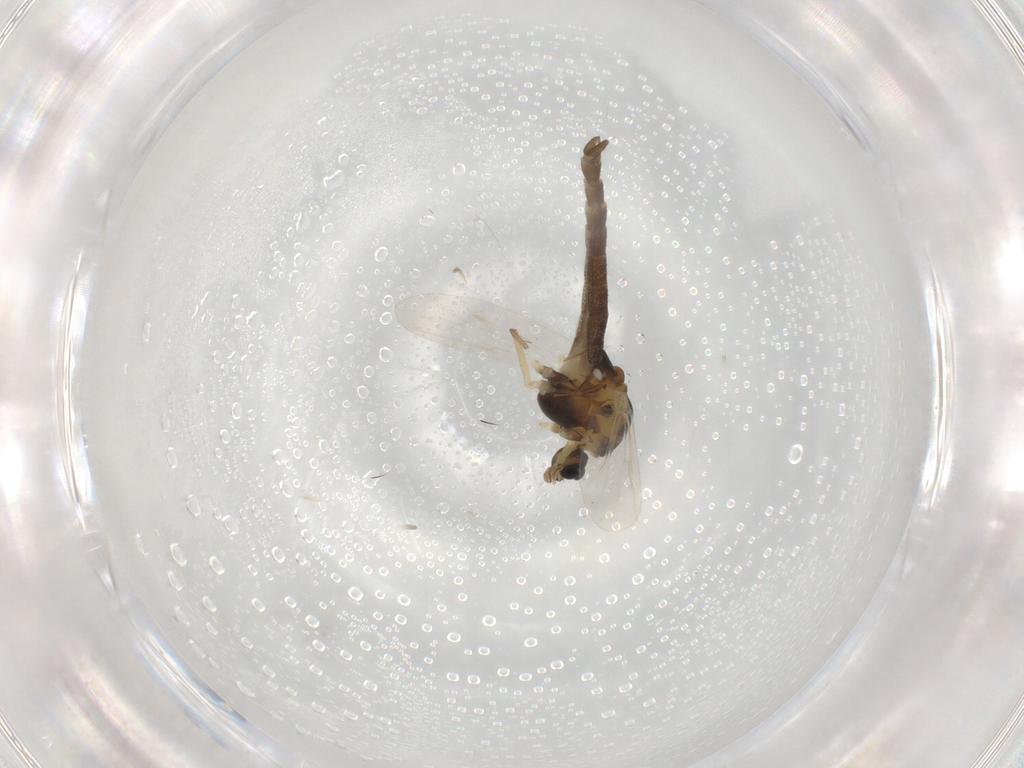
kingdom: Animalia
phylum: Arthropoda
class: Insecta
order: Diptera
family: Chironomidae
